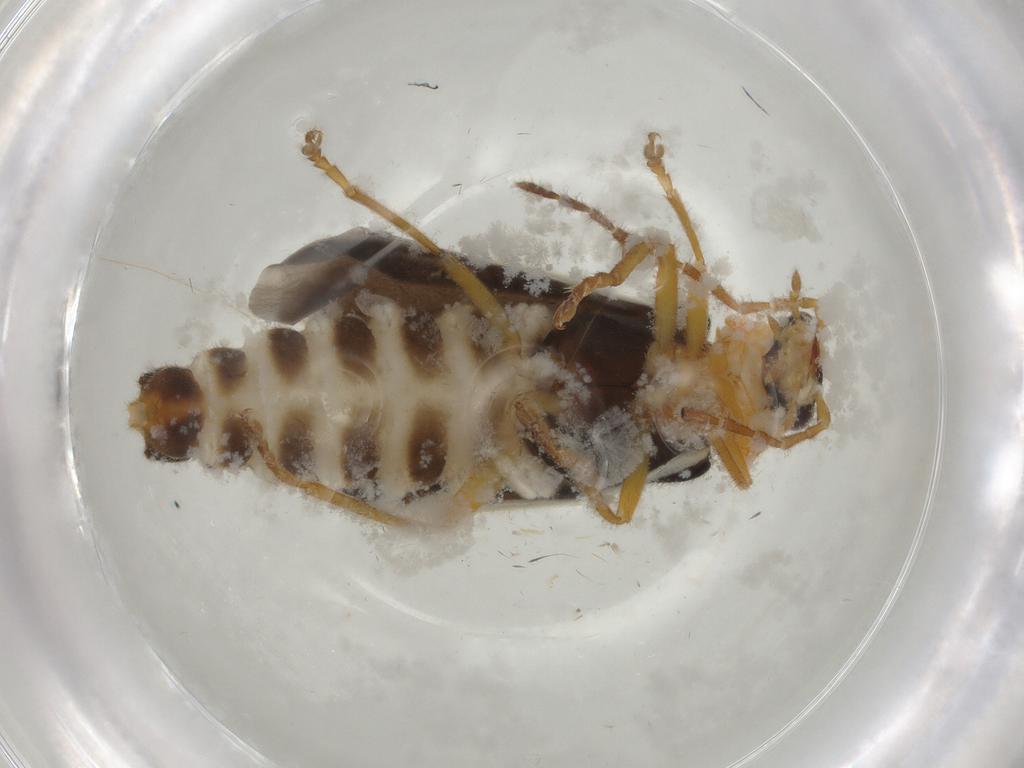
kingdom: Animalia
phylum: Arthropoda
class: Insecta
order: Coleoptera
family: Cantharidae
